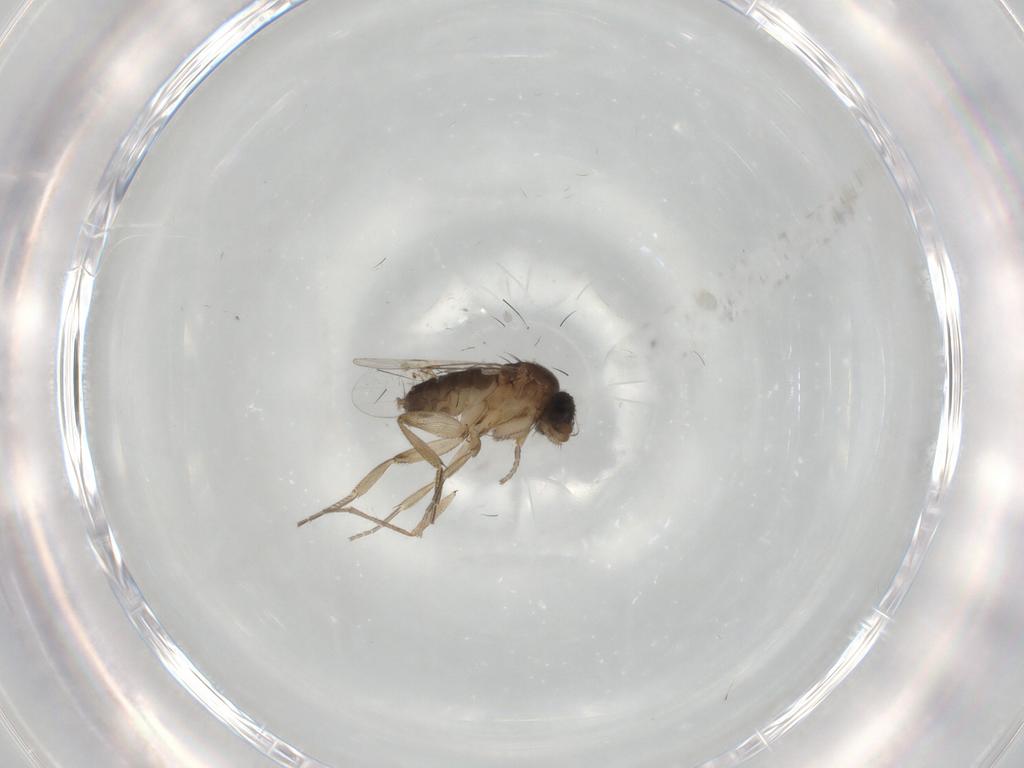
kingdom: Animalia
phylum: Arthropoda
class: Insecta
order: Diptera
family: Phoridae
